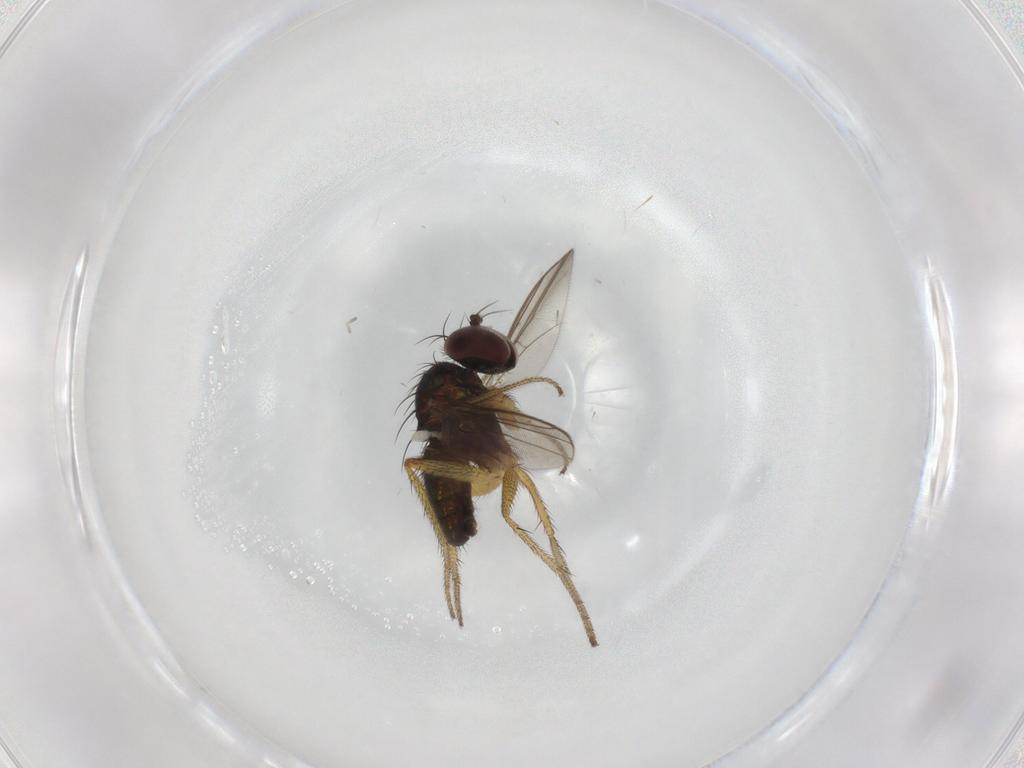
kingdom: Animalia
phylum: Arthropoda
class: Insecta
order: Diptera
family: Dolichopodidae
